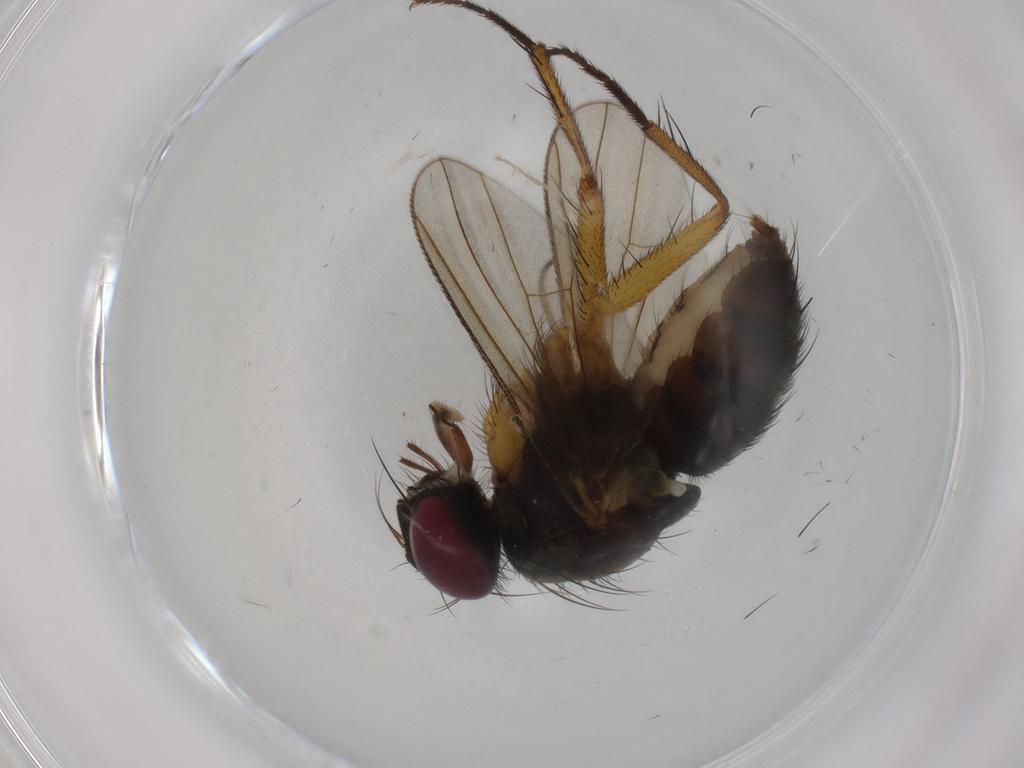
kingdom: Animalia
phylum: Arthropoda
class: Insecta
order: Diptera
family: Muscidae
